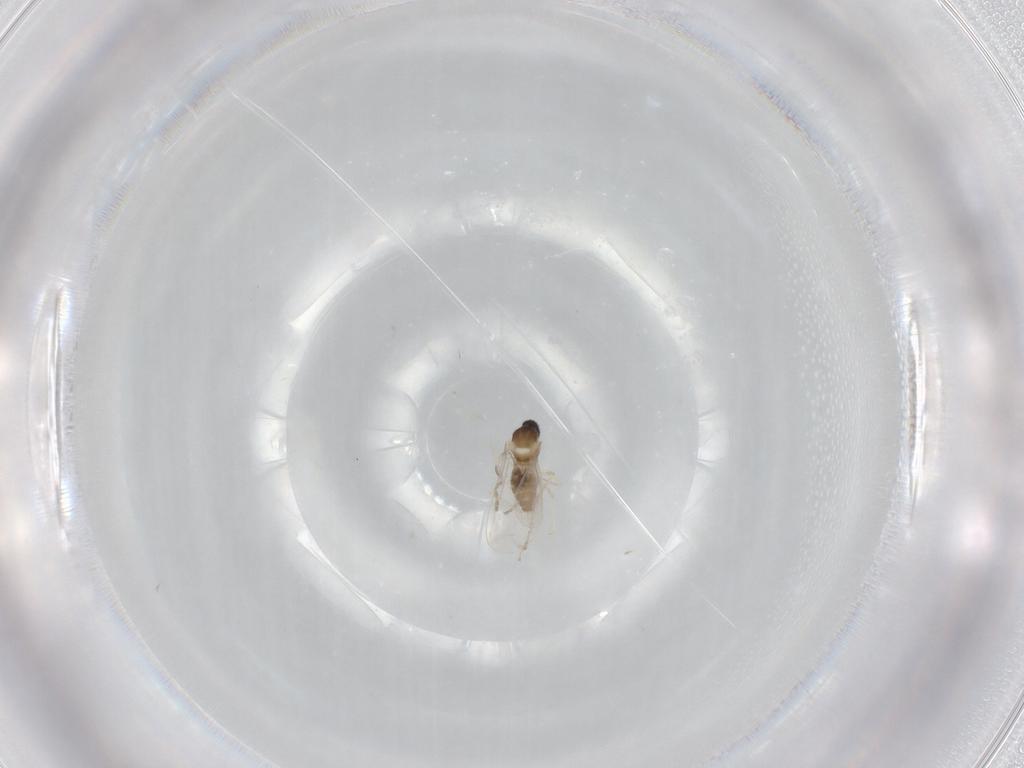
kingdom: Animalia
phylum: Arthropoda
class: Insecta
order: Diptera
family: Cecidomyiidae
